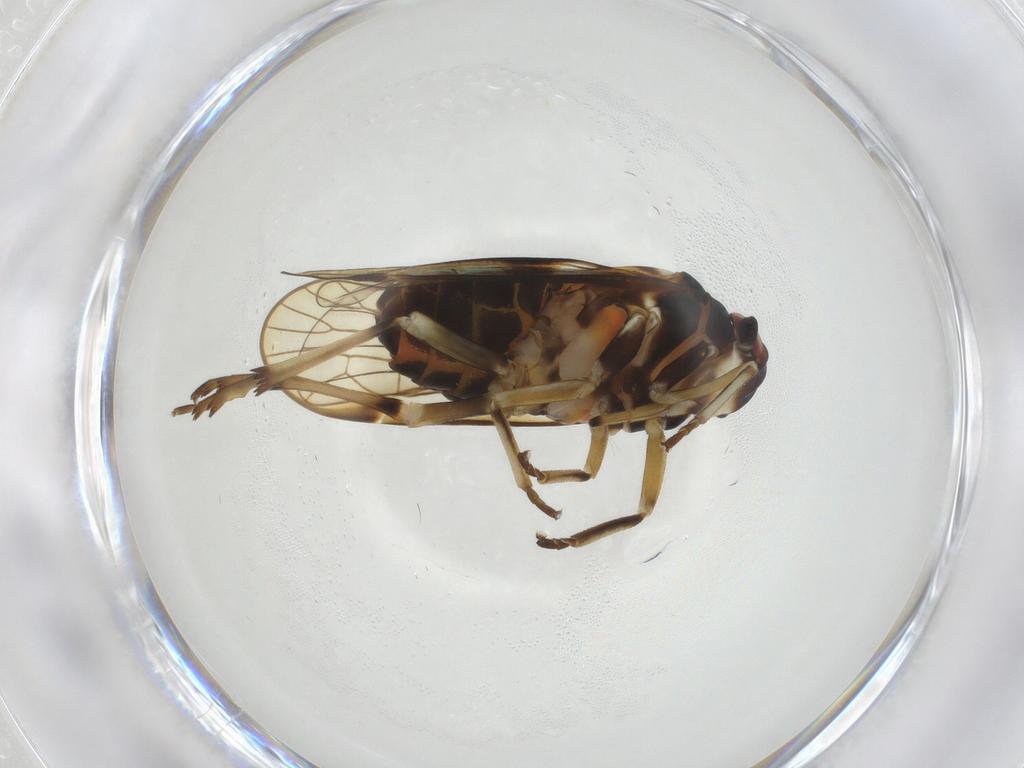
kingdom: Animalia
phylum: Arthropoda
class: Insecta
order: Hemiptera
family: Kinnaridae
